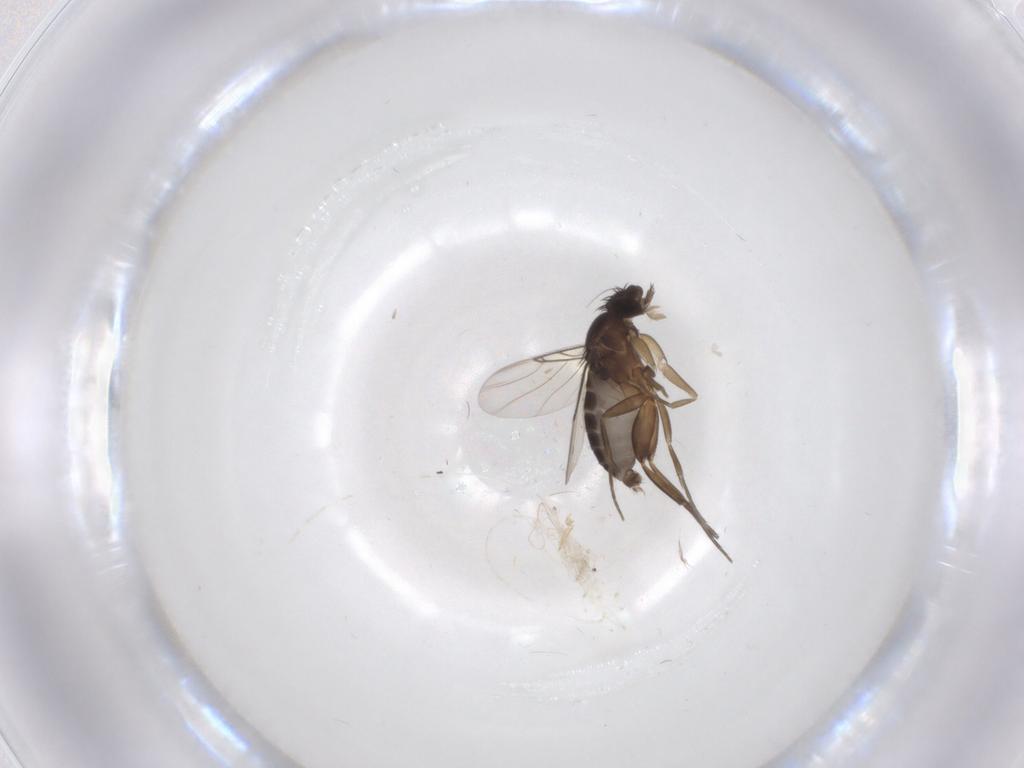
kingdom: Animalia
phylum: Arthropoda
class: Insecta
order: Diptera
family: Phoridae
